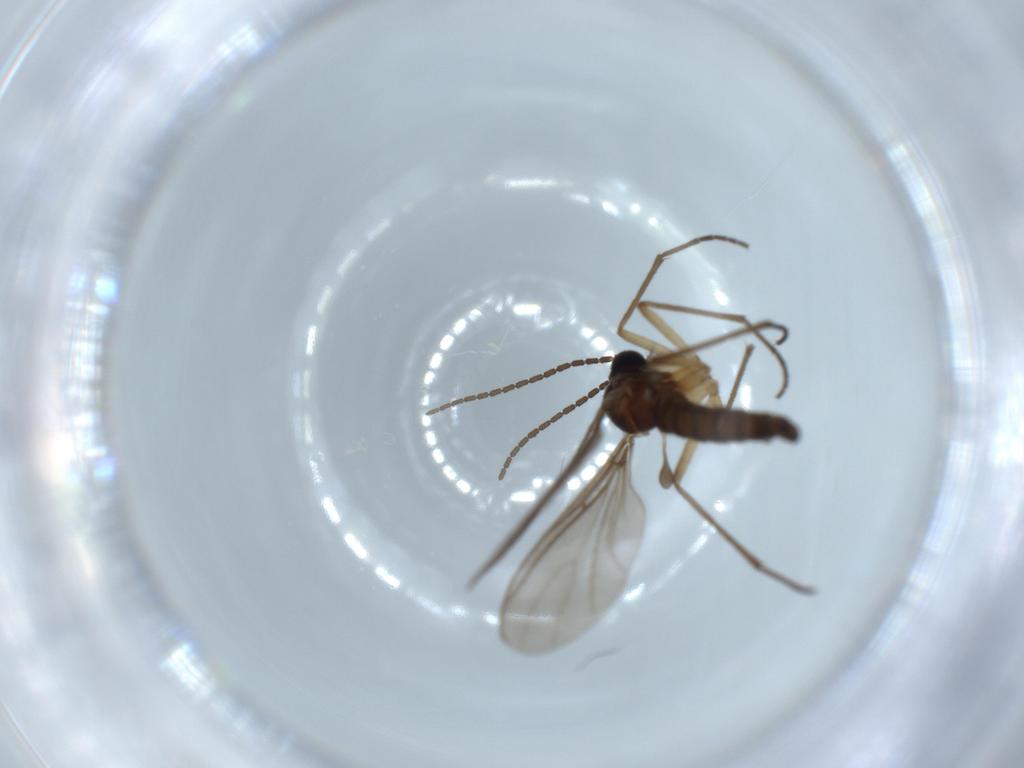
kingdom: Animalia
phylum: Arthropoda
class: Insecta
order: Diptera
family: Sciaridae
